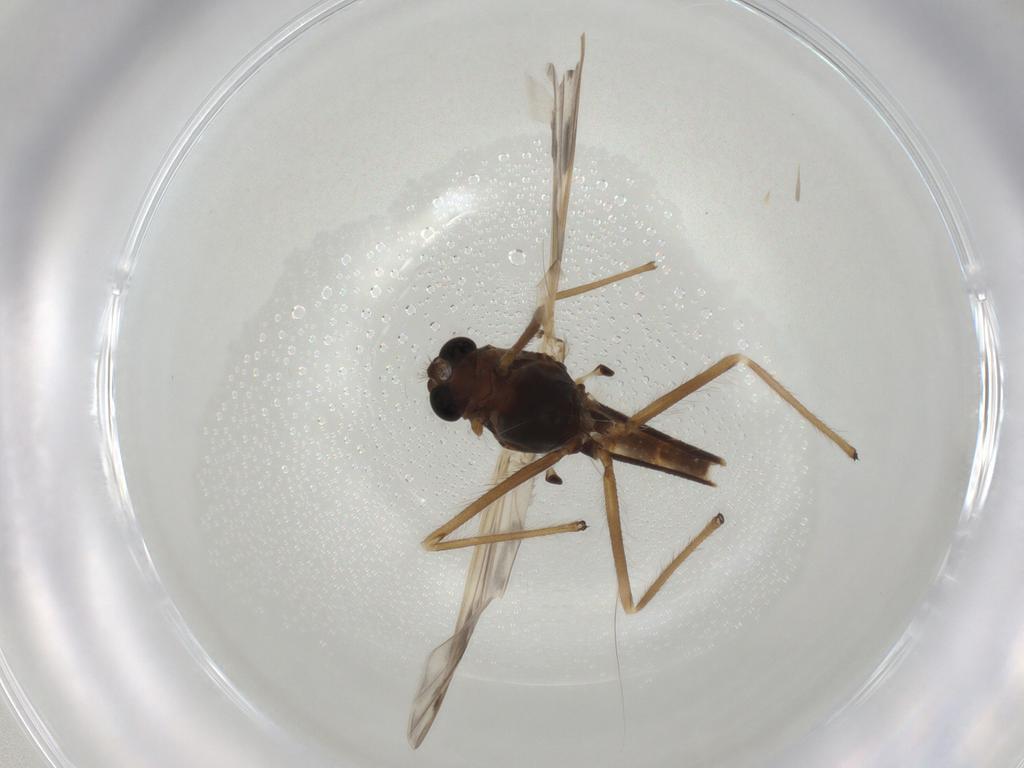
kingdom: Animalia
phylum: Arthropoda
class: Insecta
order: Diptera
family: Chironomidae
